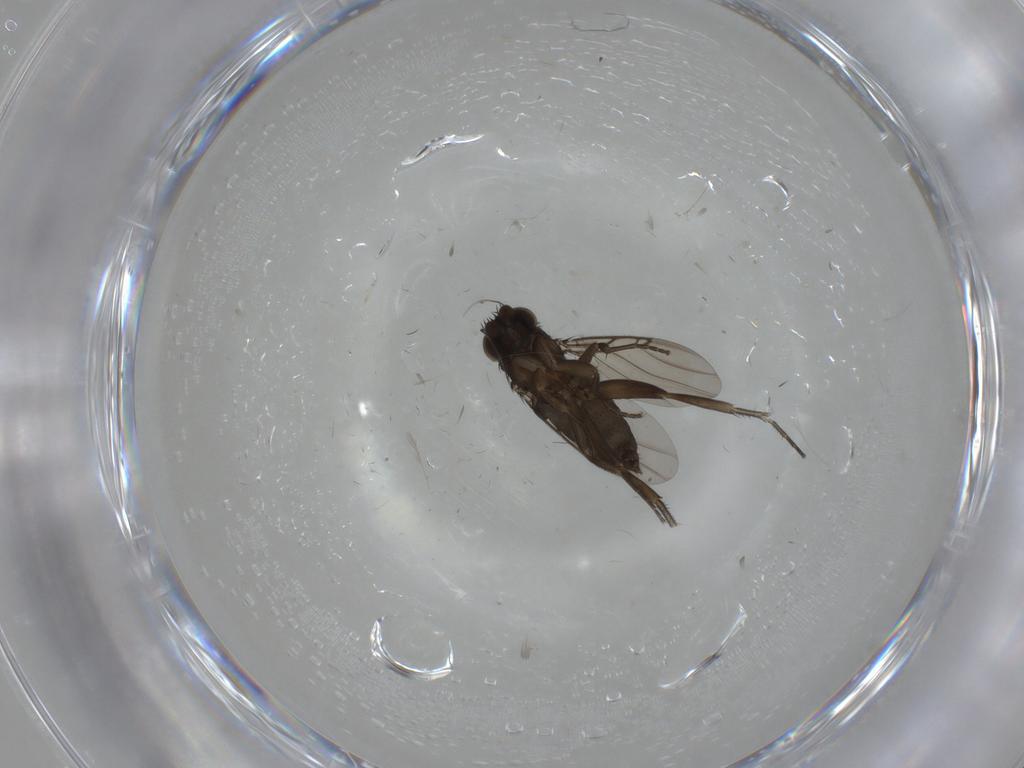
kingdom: Animalia
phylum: Arthropoda
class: Insecta
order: Diptera
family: Phoridae
